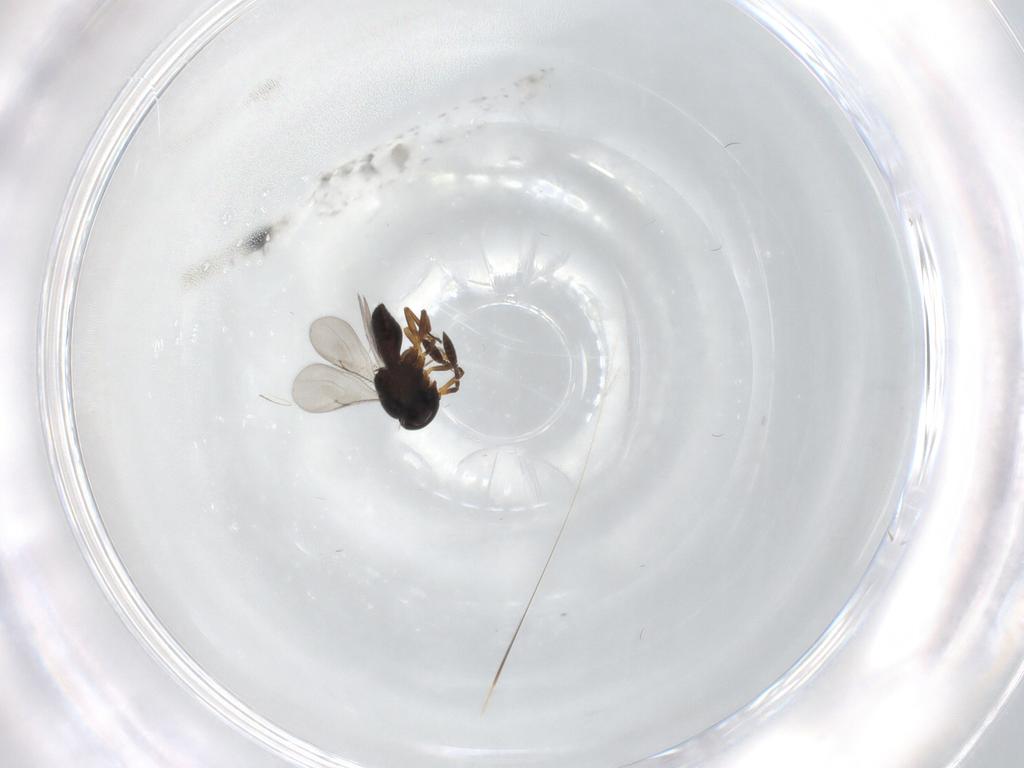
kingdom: Animalia
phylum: Arthropoda
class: Insecta
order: Hymenoptera
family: Scelionidae
